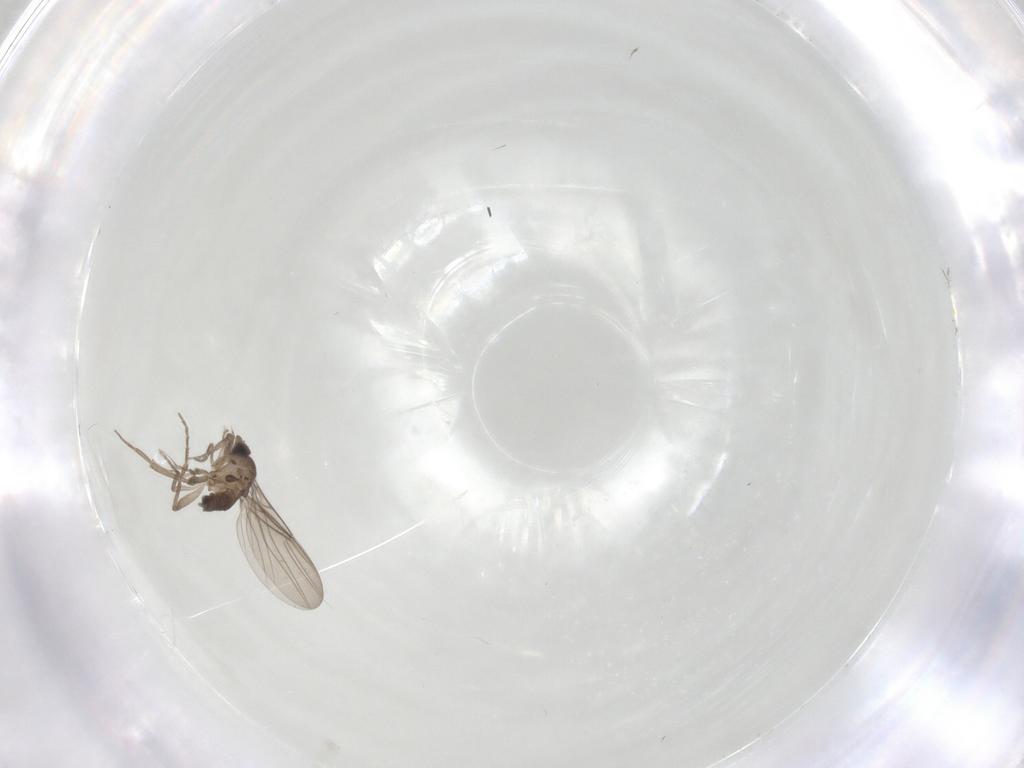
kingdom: Animalia
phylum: Arthropoda
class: Insecta
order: Diptera
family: Phoridae
